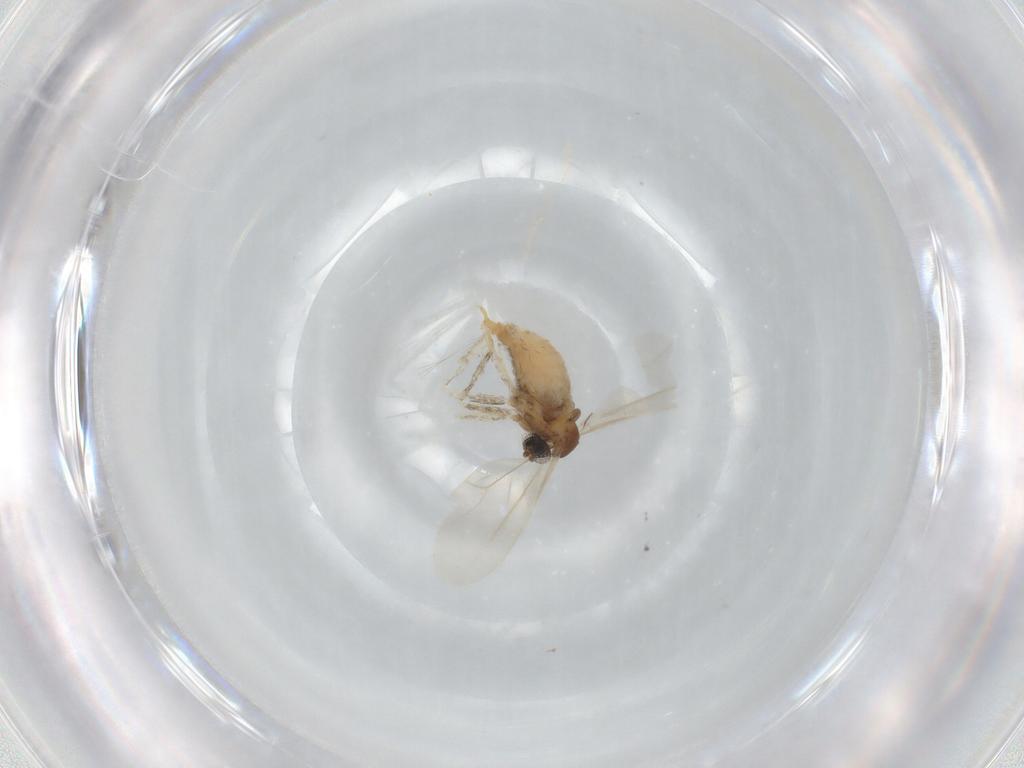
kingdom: Animalia
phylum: Arthropoda
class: Insecta
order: Diptera
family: Cecidomyiidae
